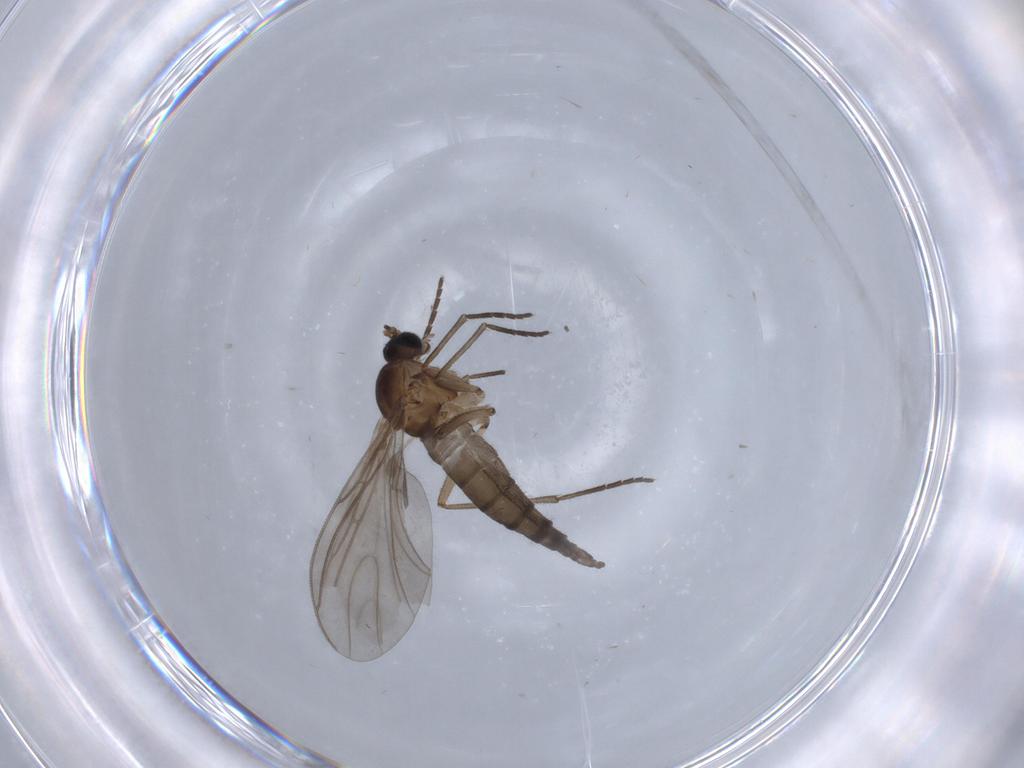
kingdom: Animalia
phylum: Arthropoda
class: Insecta
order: Diptera
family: Sciaridae
